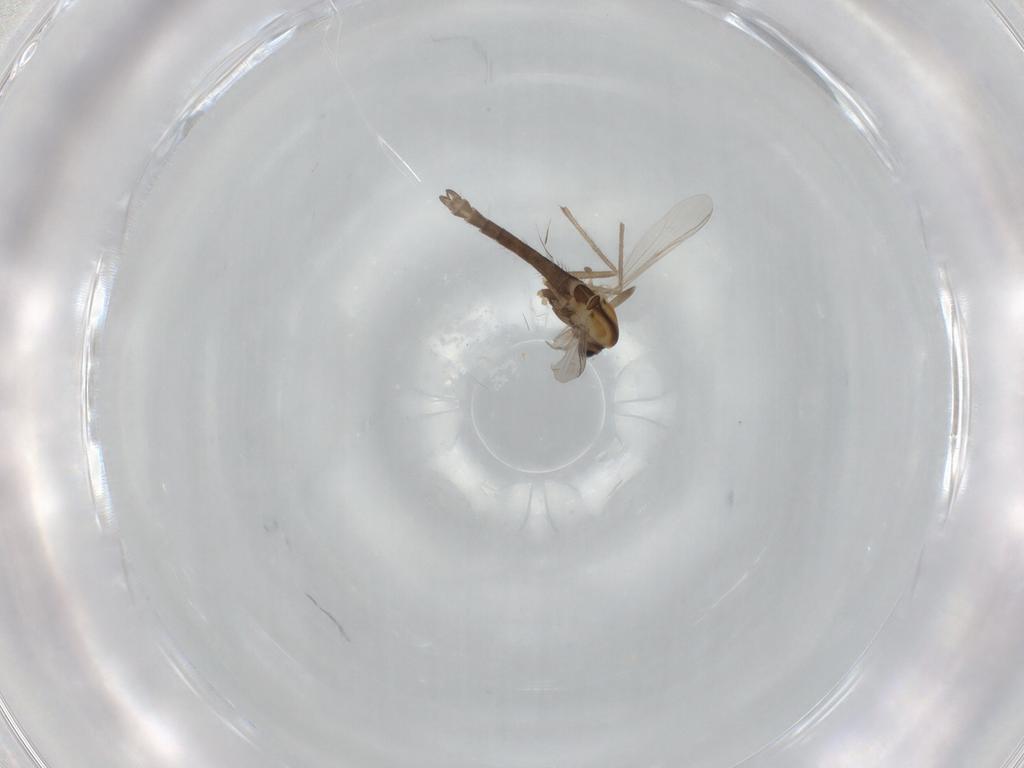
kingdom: Animalia
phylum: Arthropoda
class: Insecta
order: Diptera
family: Chironomidae
